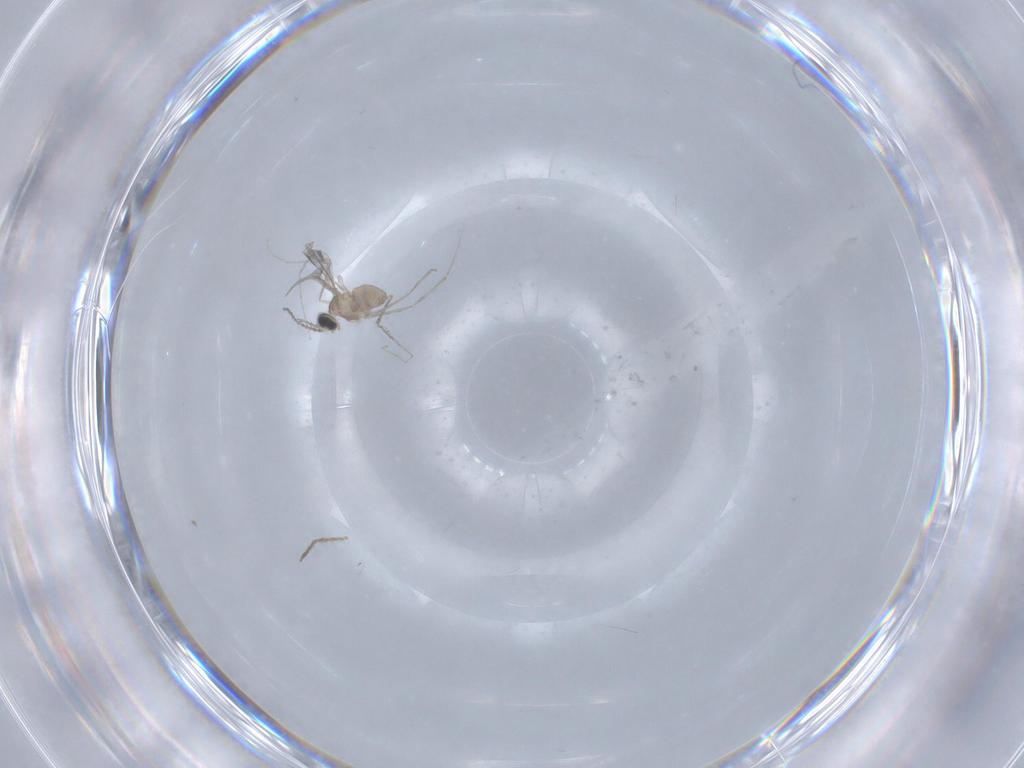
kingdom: Animalia
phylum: Arthropoda
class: Insecta
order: Diptera
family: Cecidomyiidae
